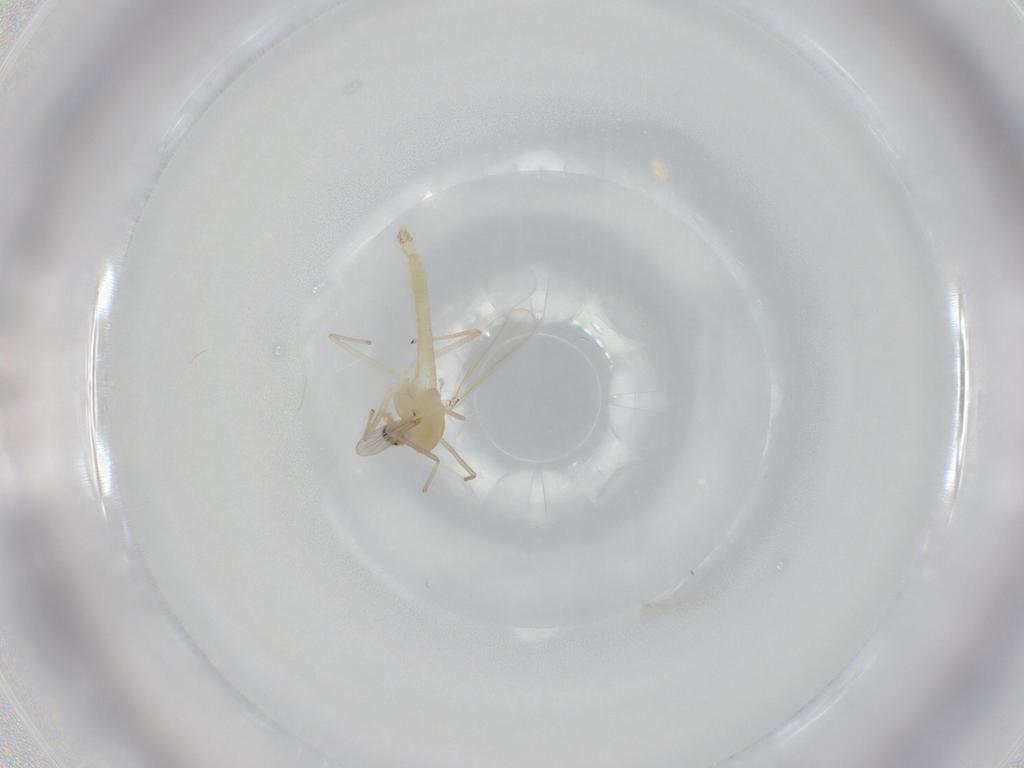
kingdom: Animalia
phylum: Arthropoda
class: Insecta
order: Diptera
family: Chironomidae
